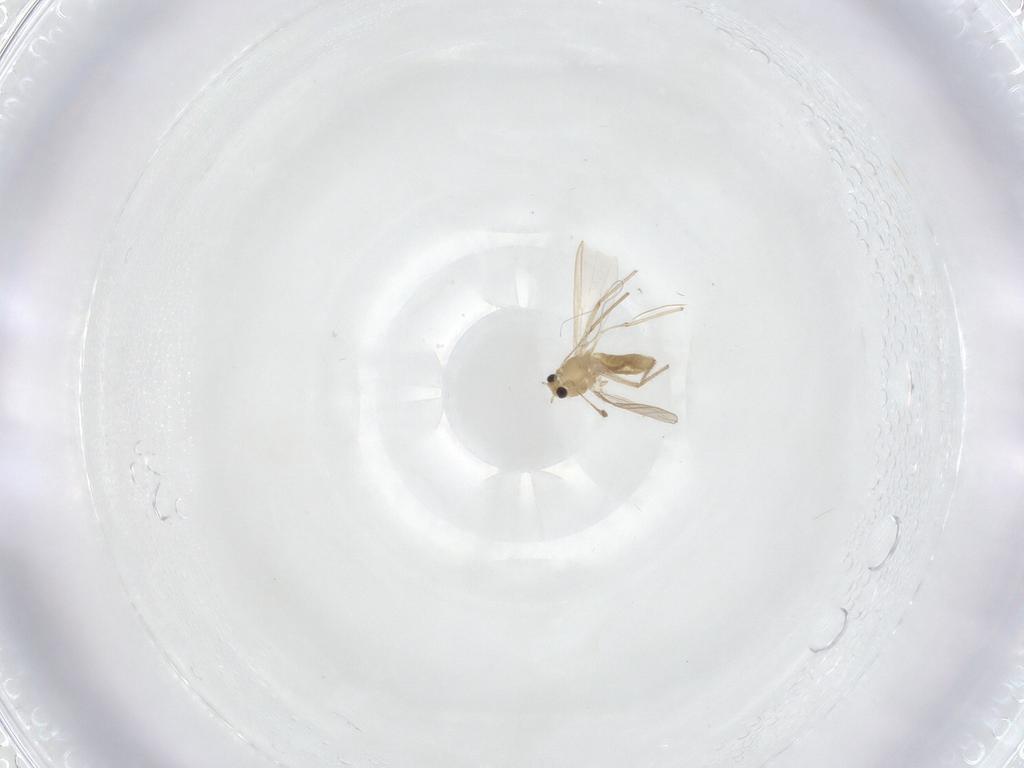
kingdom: Animalia
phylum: Arthropoda
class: Insecta
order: Diptera
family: Chironomidae
